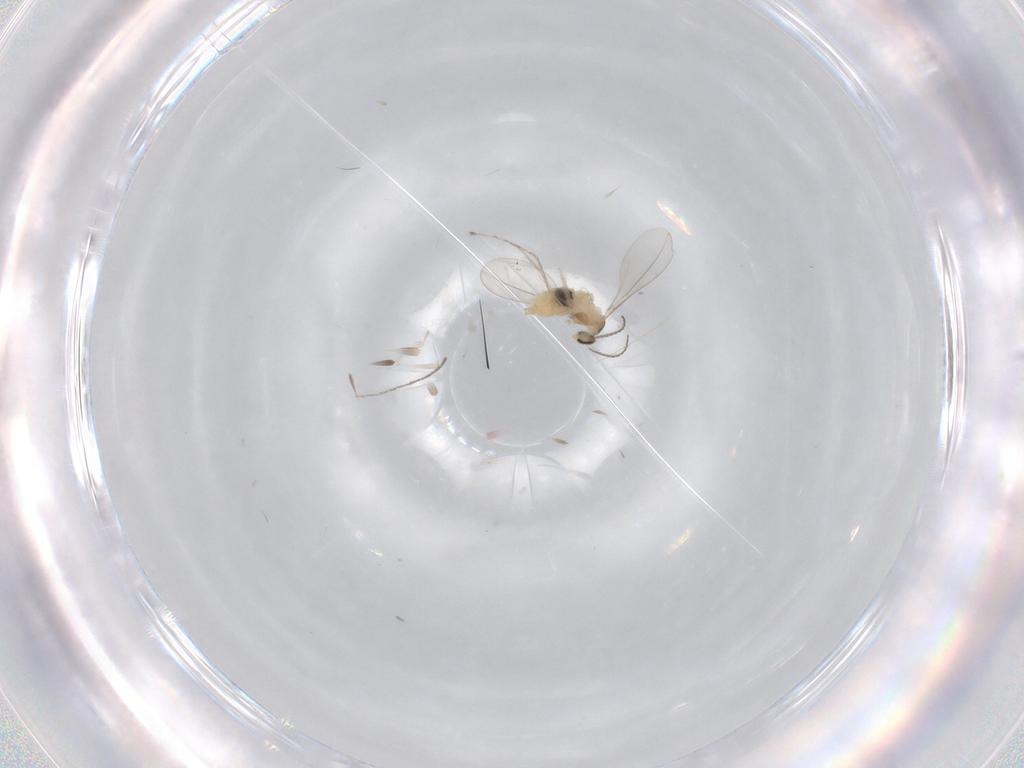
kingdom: Animalia
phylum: Arthropoda
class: Insecta
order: Diptera
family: Cecidomyiidae
